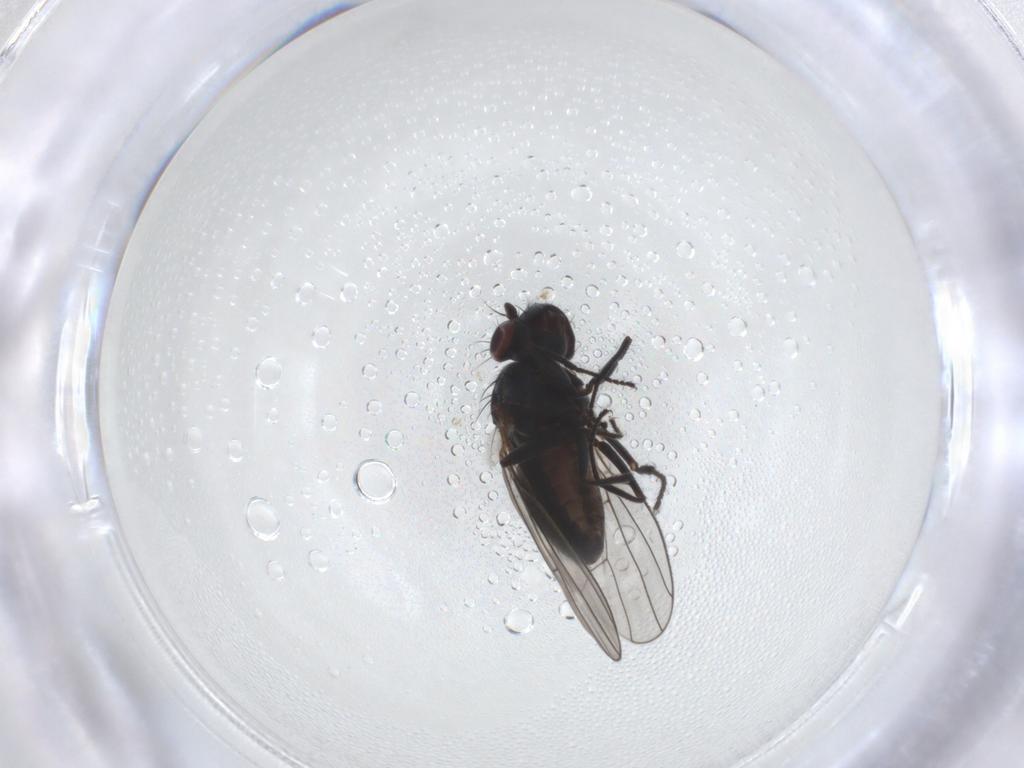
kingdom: Animalia
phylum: Arthropoda
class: Insecta
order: Diptera
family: Ephydridae
